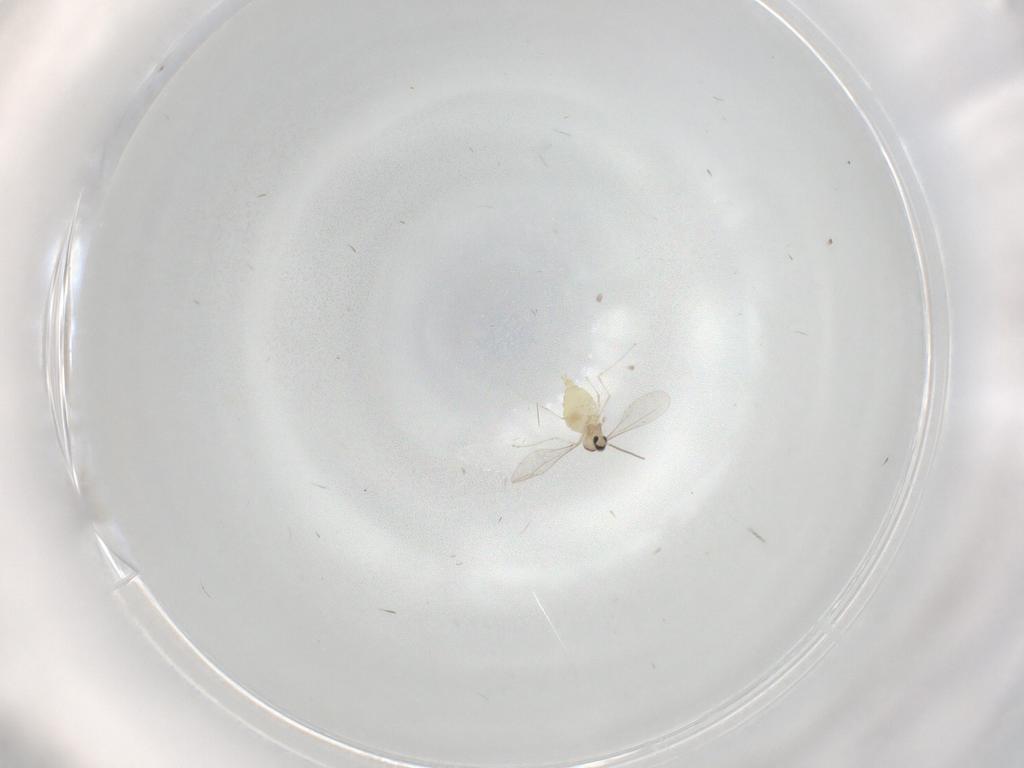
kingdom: Animalia
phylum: Arthropoda
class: Insecta
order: Diptera
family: Cecidomyiidae
